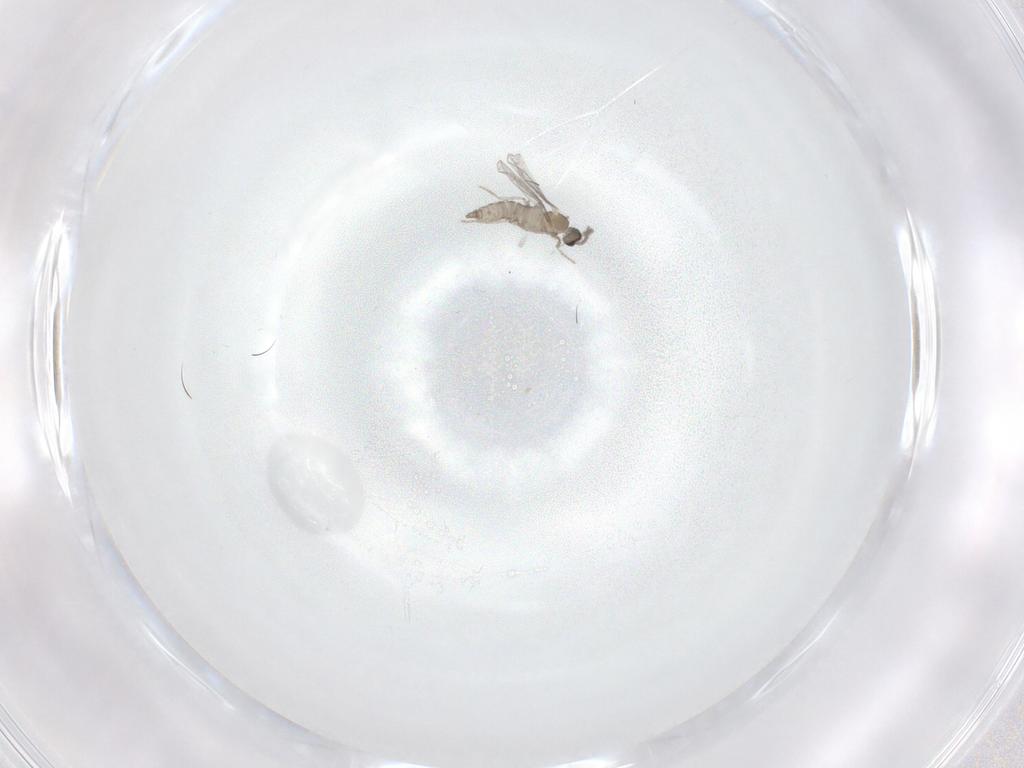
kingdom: Animalia
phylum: Arthropoda
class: Insecta
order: Diptera
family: Cecidomyiidae
